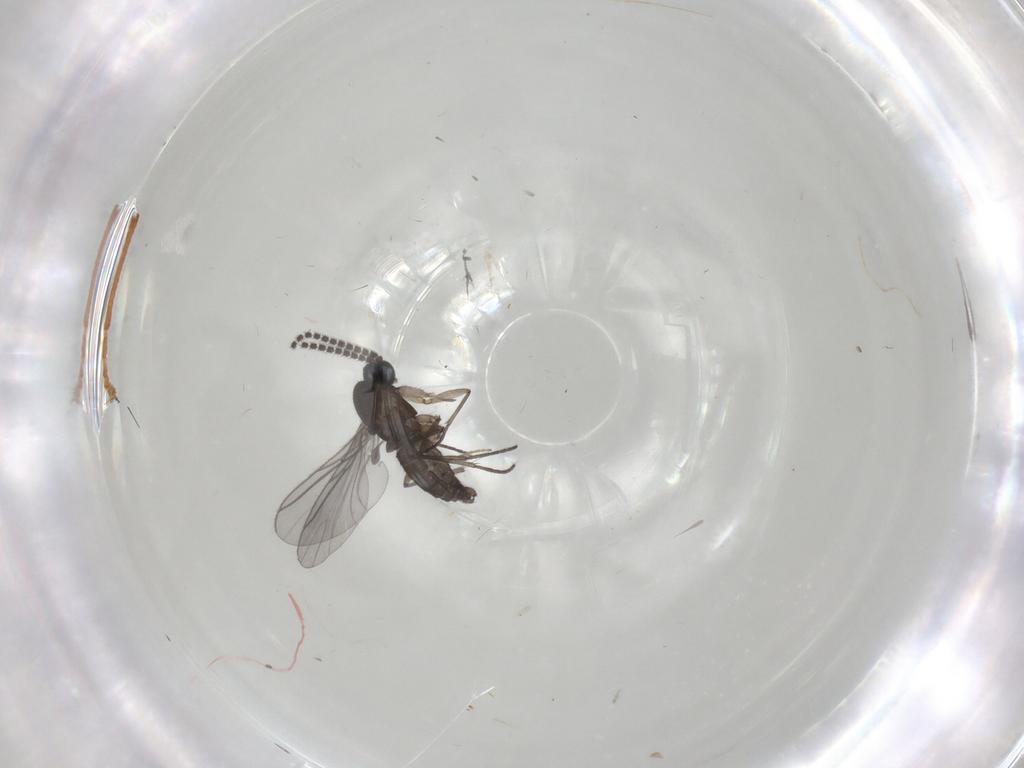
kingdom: Animalia
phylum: Arthropoda
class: Insecta
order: Diptera
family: Chironomidae
